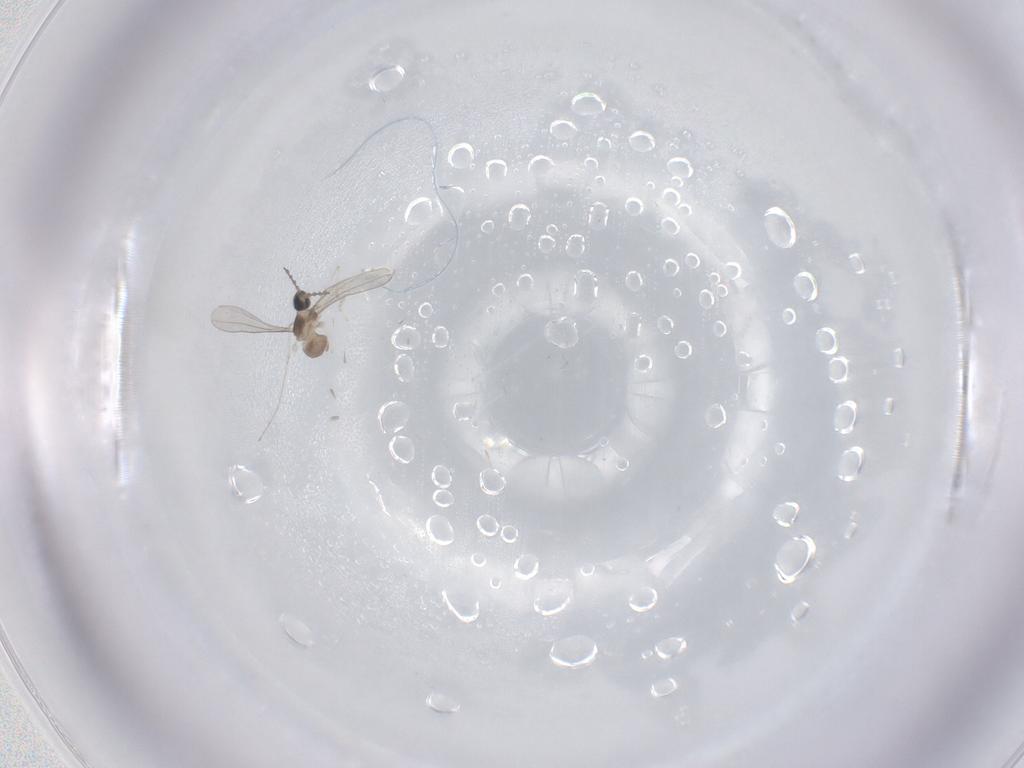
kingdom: Animalia
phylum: Arthropoda
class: Insecta
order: Diptera
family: Cecidomyiidae
